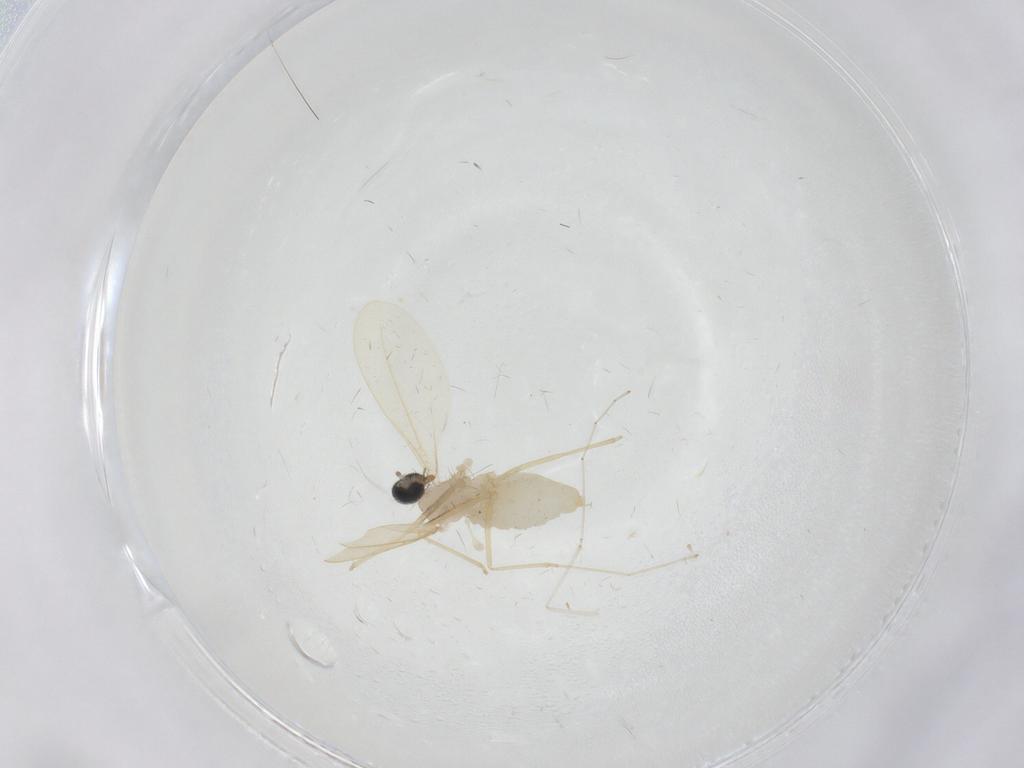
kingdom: Animalia
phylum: Arthropoda
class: Insecta
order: Diptera
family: Cecidomyiidae
